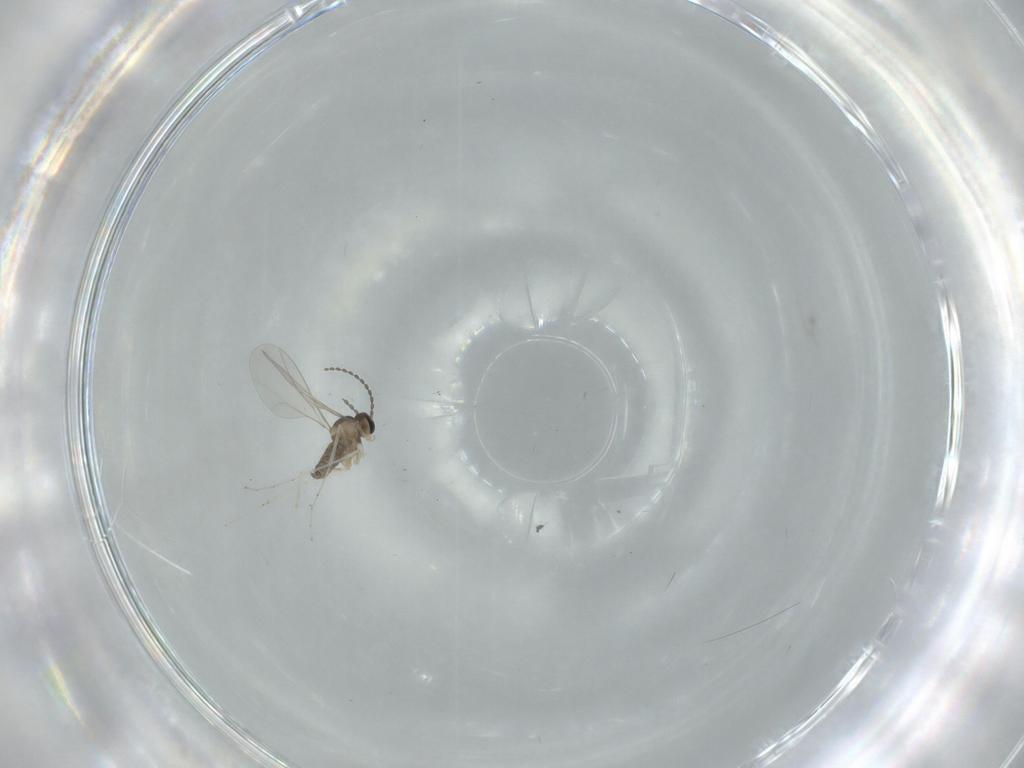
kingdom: Animalia
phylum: Arthropoda
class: Insecta
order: Diptera
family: Cecidomyiidae
